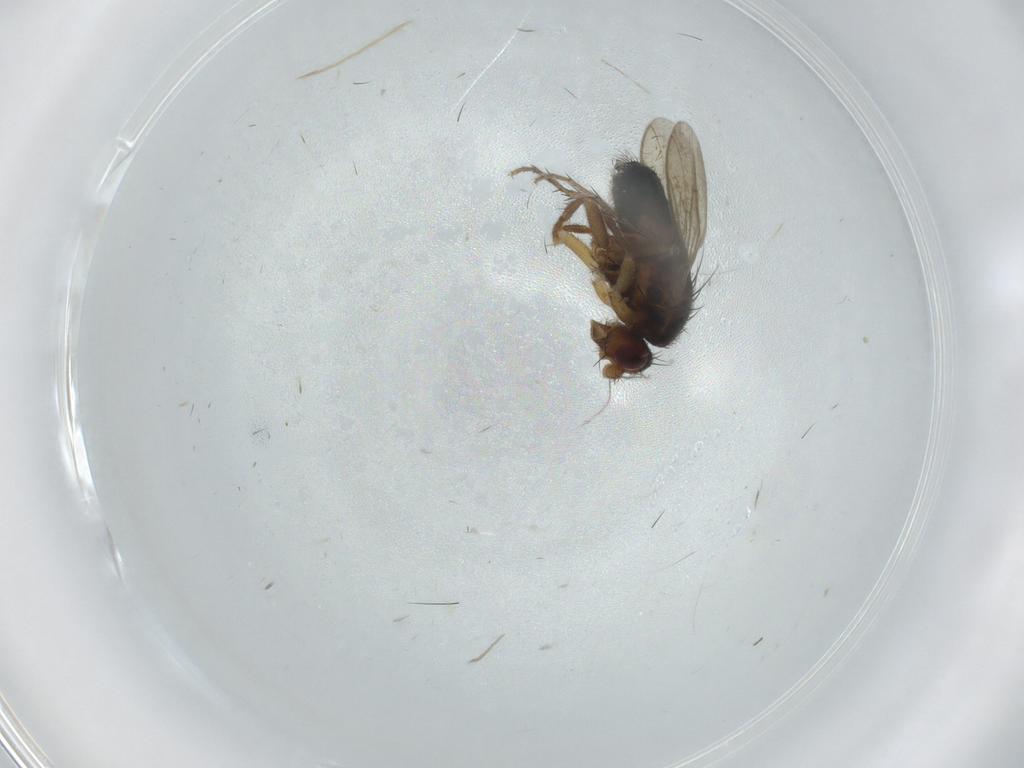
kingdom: Animalia
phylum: Arthropoda
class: Insecta
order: Diptera
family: Sphaeroceridae
